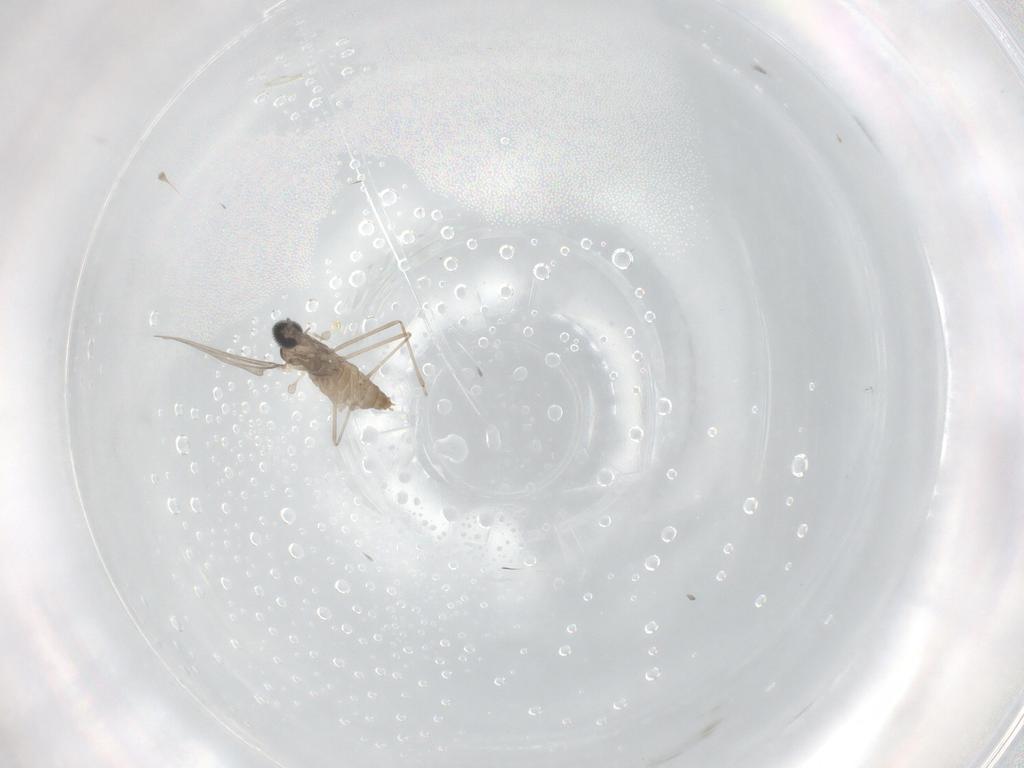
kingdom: Animalia
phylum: Arthropoda
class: Insecta
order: Diptera
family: Cecidomyiidae
